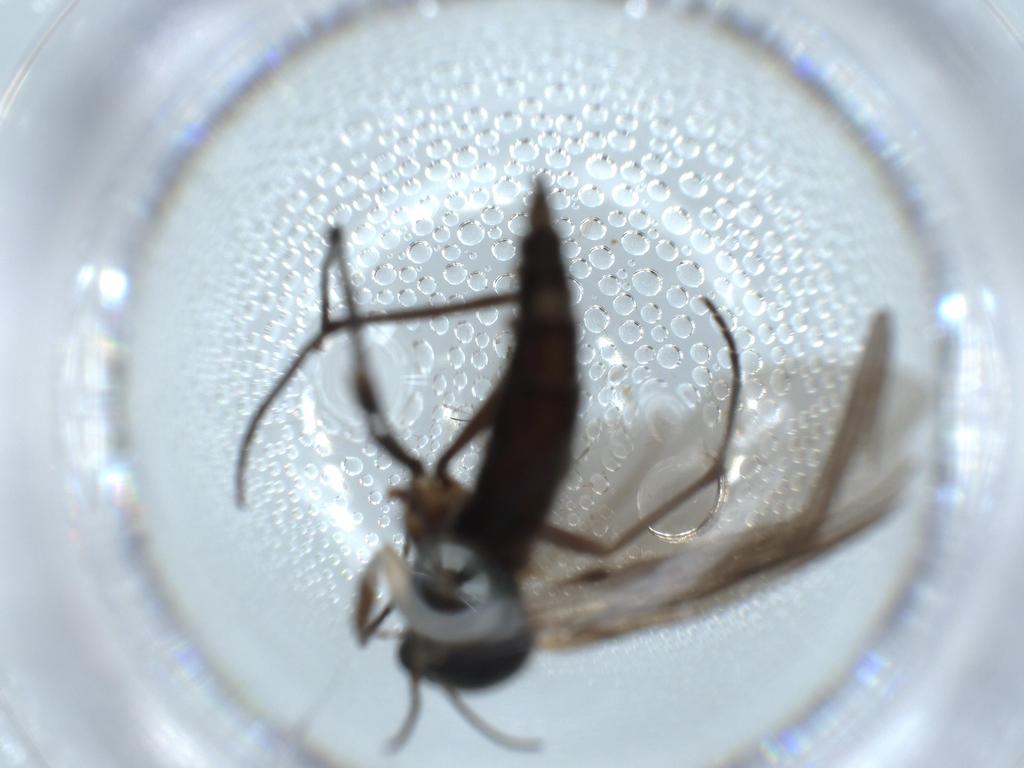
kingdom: Animalia
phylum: Arthropoda
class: Insecta
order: Diptera
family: Sciaridae
